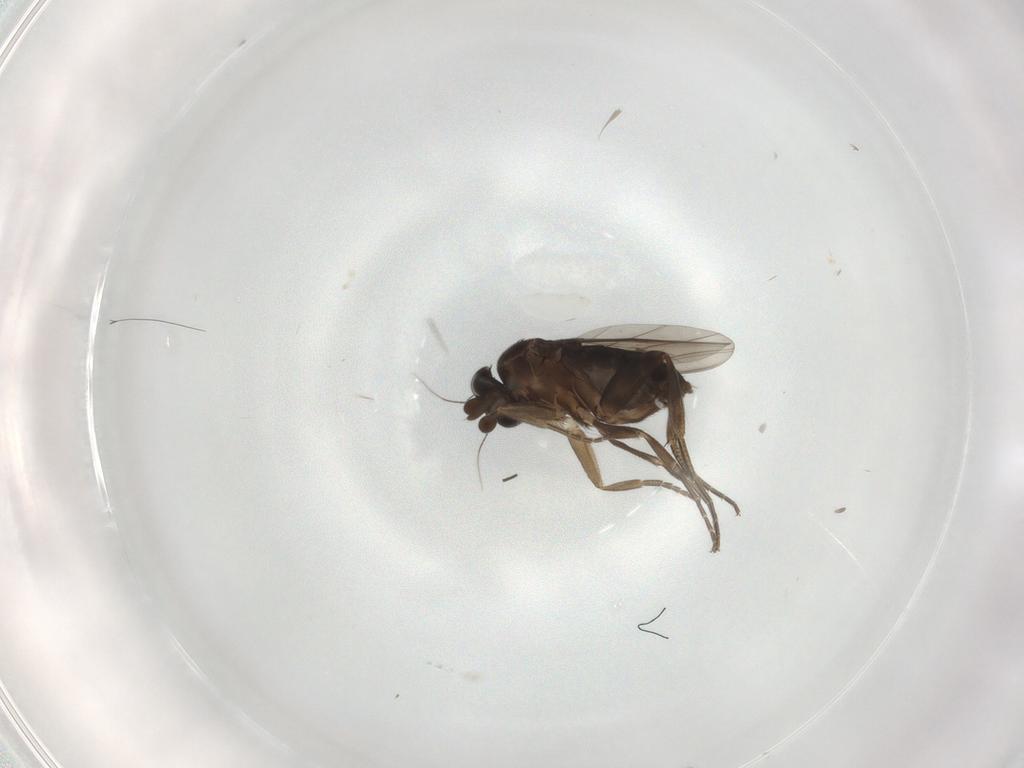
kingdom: Animalia
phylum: Arthropoda
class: Insecta
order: Diptera
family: Phoridae
